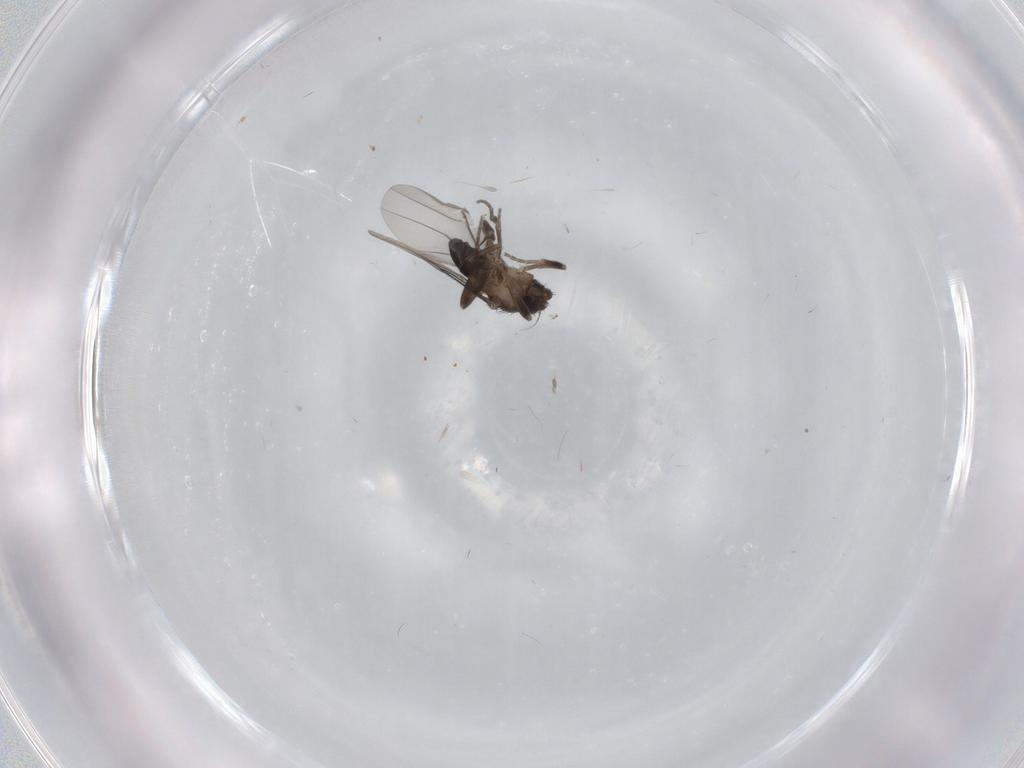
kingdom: Animalia
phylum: Arthropoda
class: Insecta
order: Diptera
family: Phoridae
